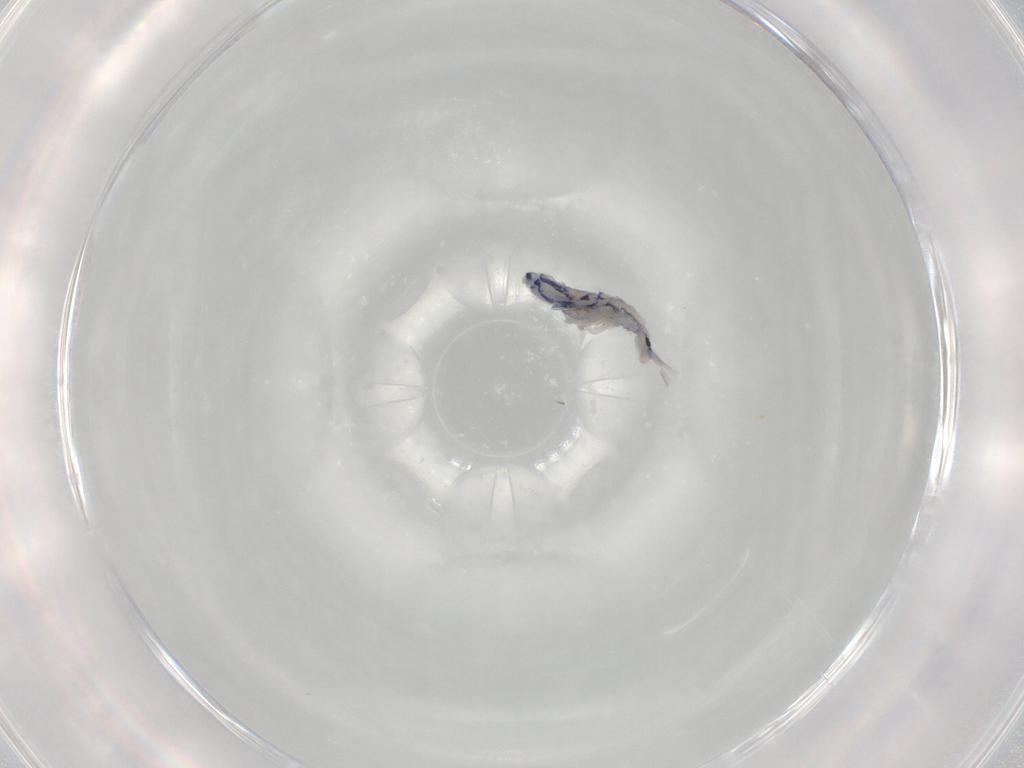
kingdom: Animalia
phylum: Arthropoda
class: Collembola
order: Entomobryomorpha
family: Entomobryidae
